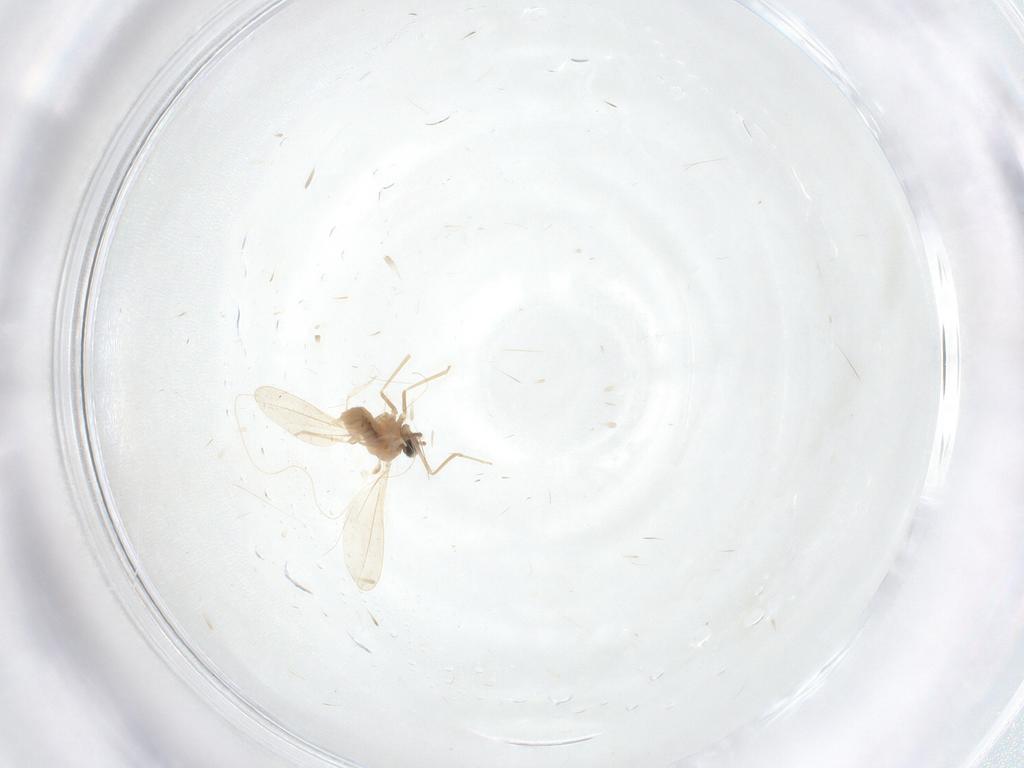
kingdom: Animalia
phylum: Arthropoda
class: Insecta
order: Diptera
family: Cecidomyiidae
